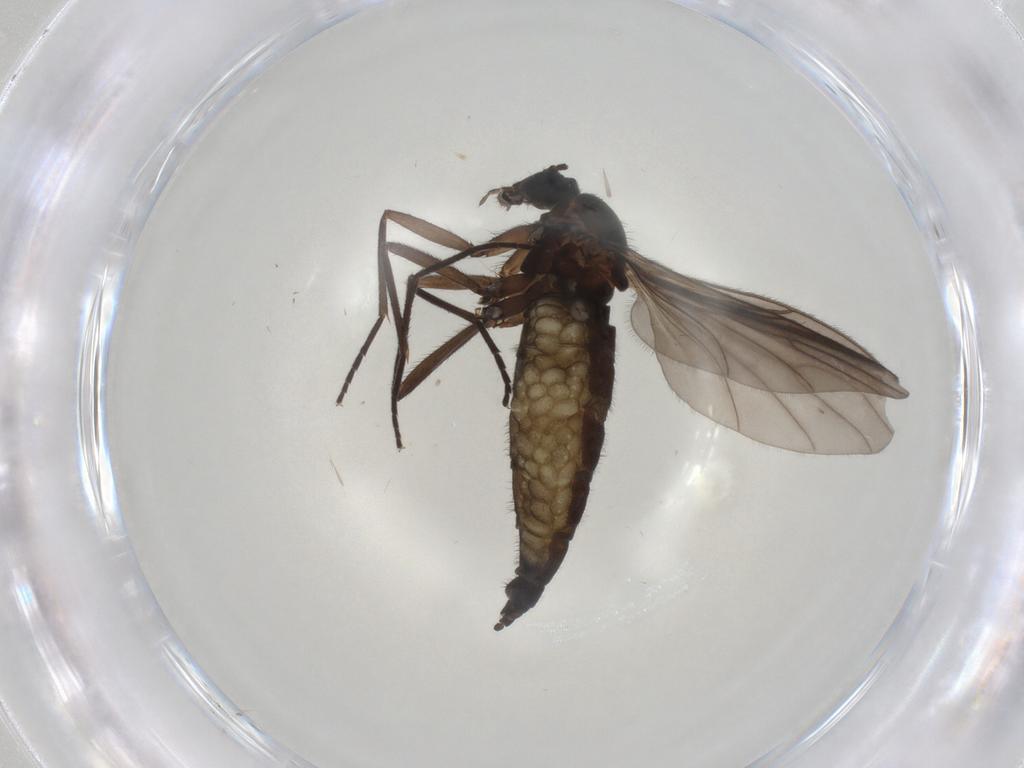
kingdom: Animalia
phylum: Arthropoda
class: Insecta
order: Diptera
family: Sciaridae
